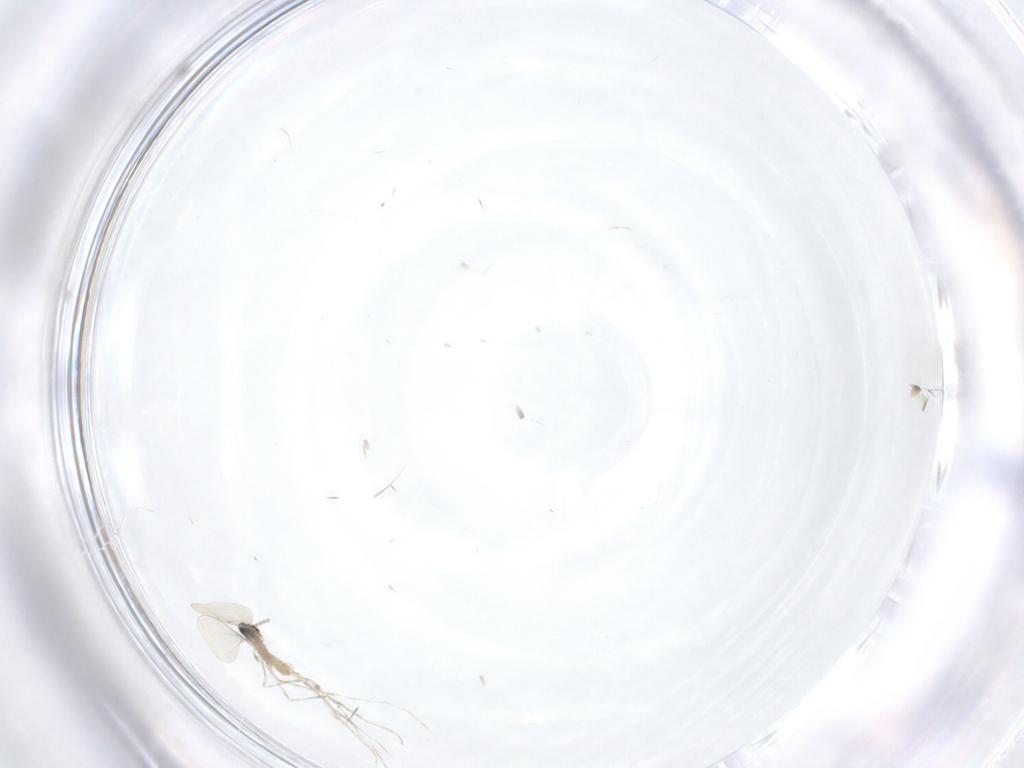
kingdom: Animalia
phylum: Arthropoda
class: Insecta
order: Diptera
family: Cecidomyiidae
